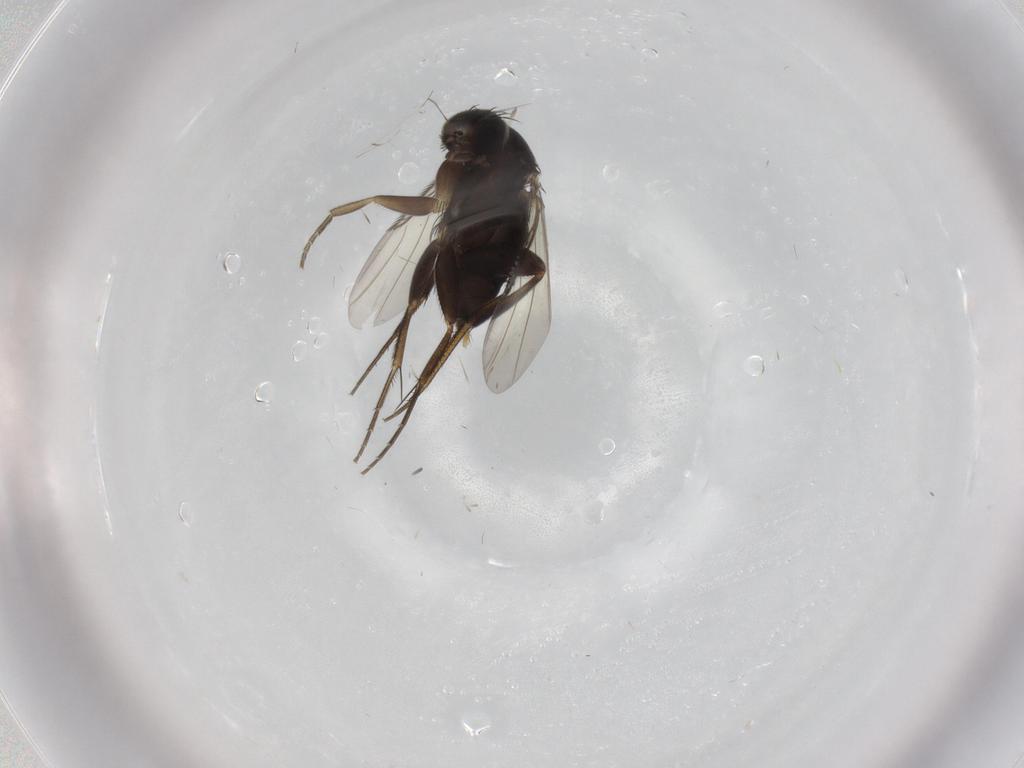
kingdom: Animalia
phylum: Arthropoda
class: Insecta
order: Diptera
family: Phoridae
